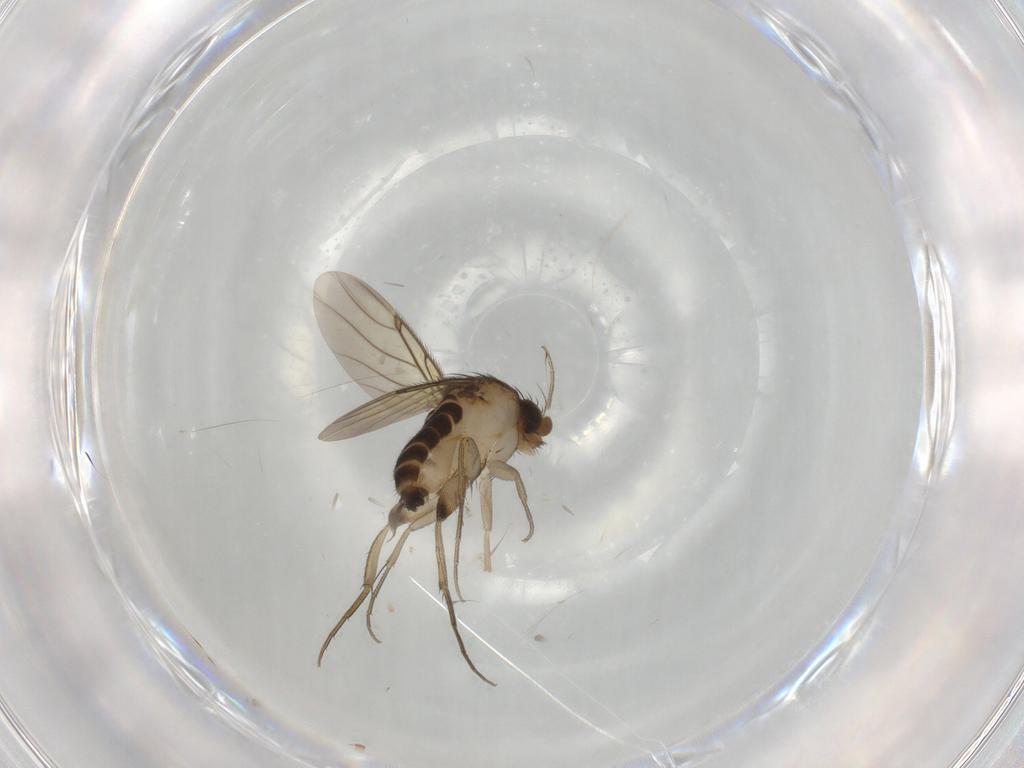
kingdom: Animalia
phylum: Arthropoda
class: Insecta
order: Diptera
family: Phoridae
